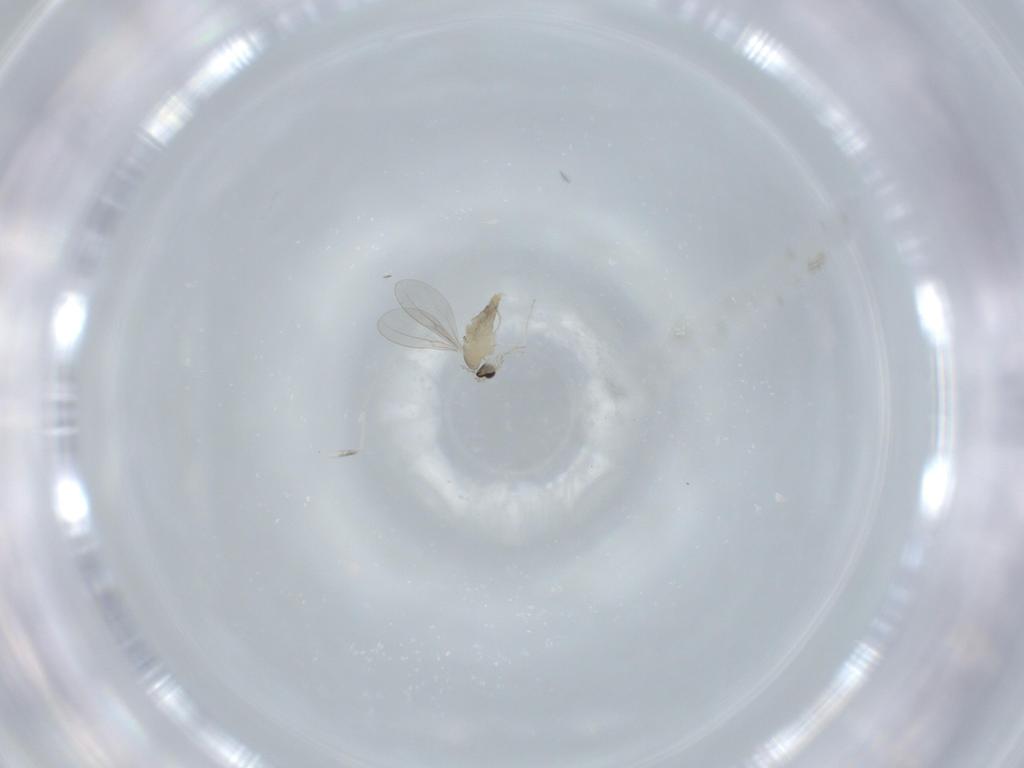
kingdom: Animalia
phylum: Arthropoda
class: Insecta
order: Diptera
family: Cecidomyiidae
